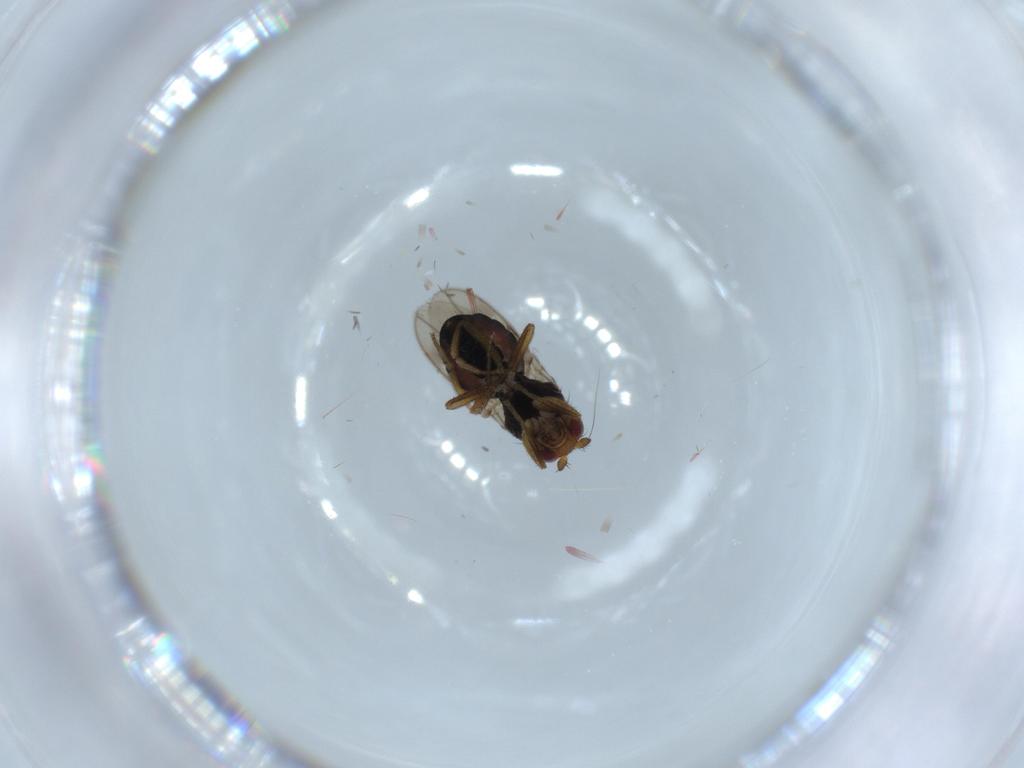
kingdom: Animalia
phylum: Arthropoda
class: Insecta
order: Diptera
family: Sphaeroceridae
